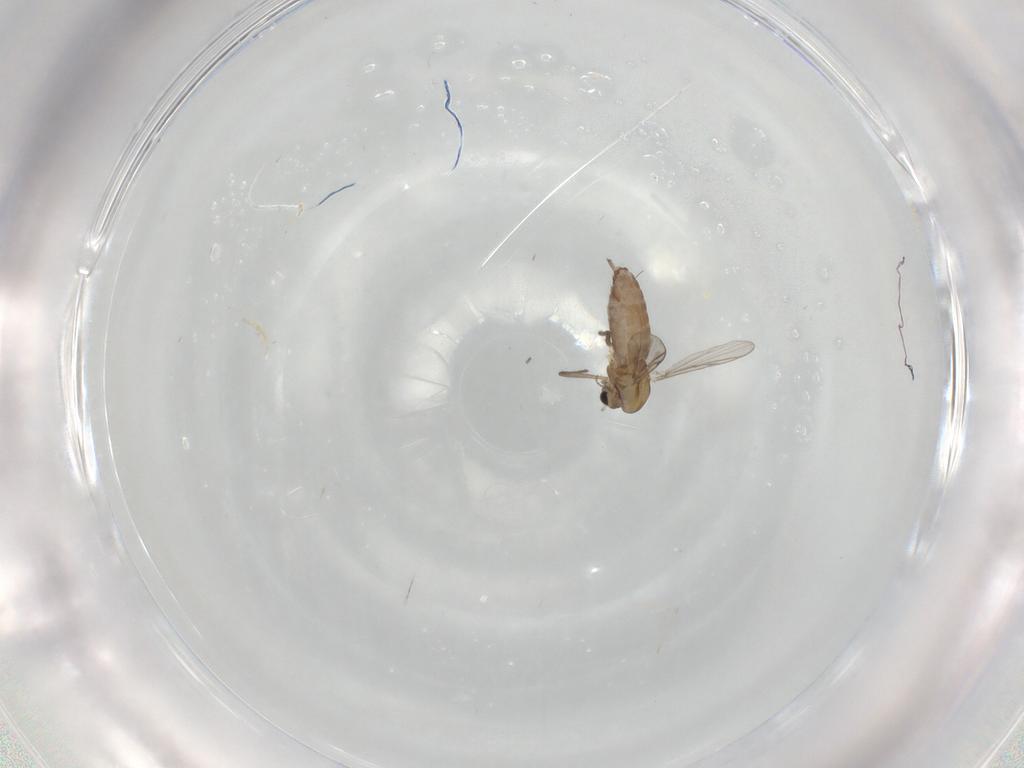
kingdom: Animalia
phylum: Arthropoda
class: Insecta
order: Diptera
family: Chironomidae
